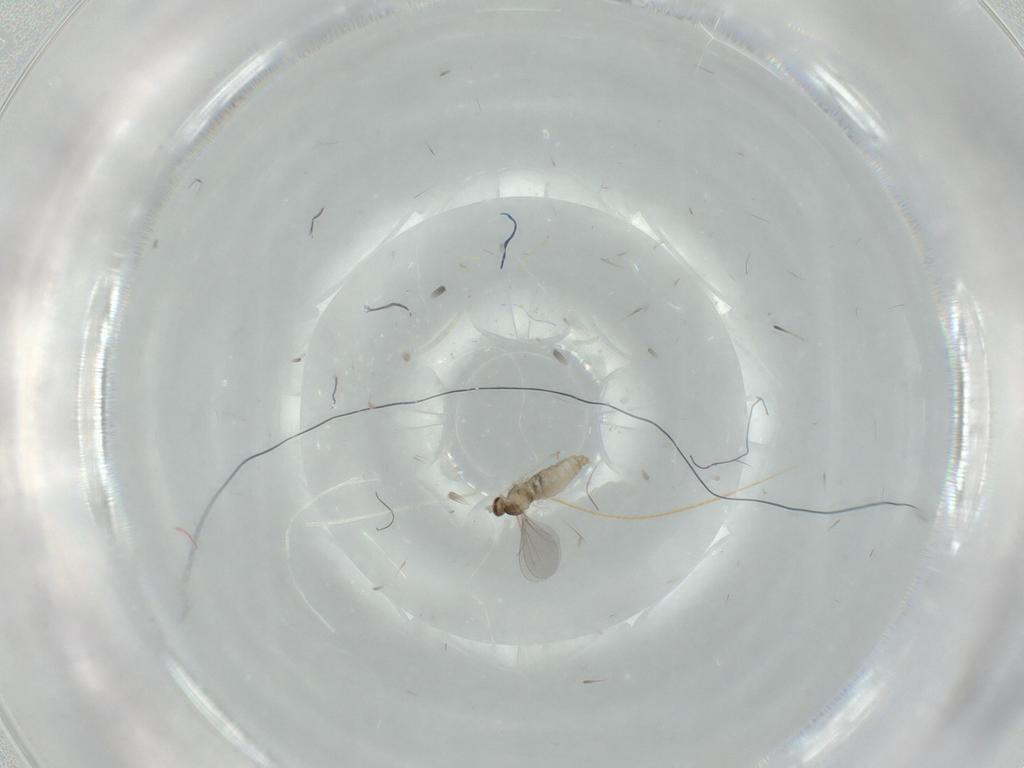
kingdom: Animalia
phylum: Arthropoda
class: Insecta
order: Diptera
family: Cecidomyiidae
